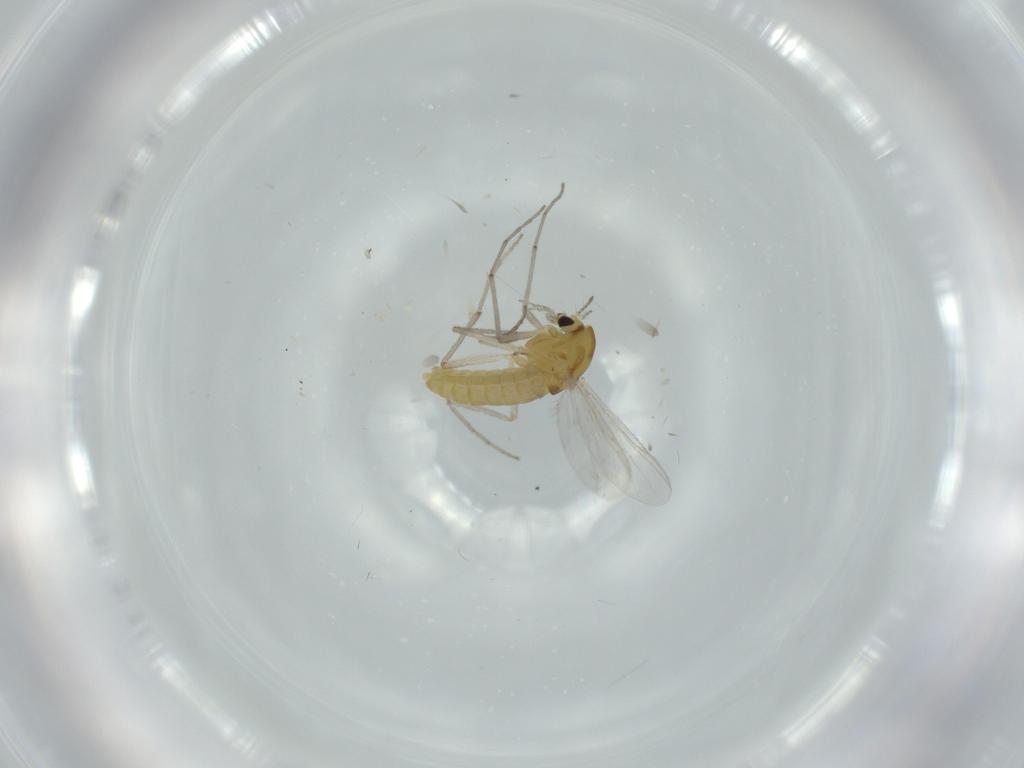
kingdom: Animalia
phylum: Arthropoda
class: Insecta
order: Diptera
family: Chironomidae
